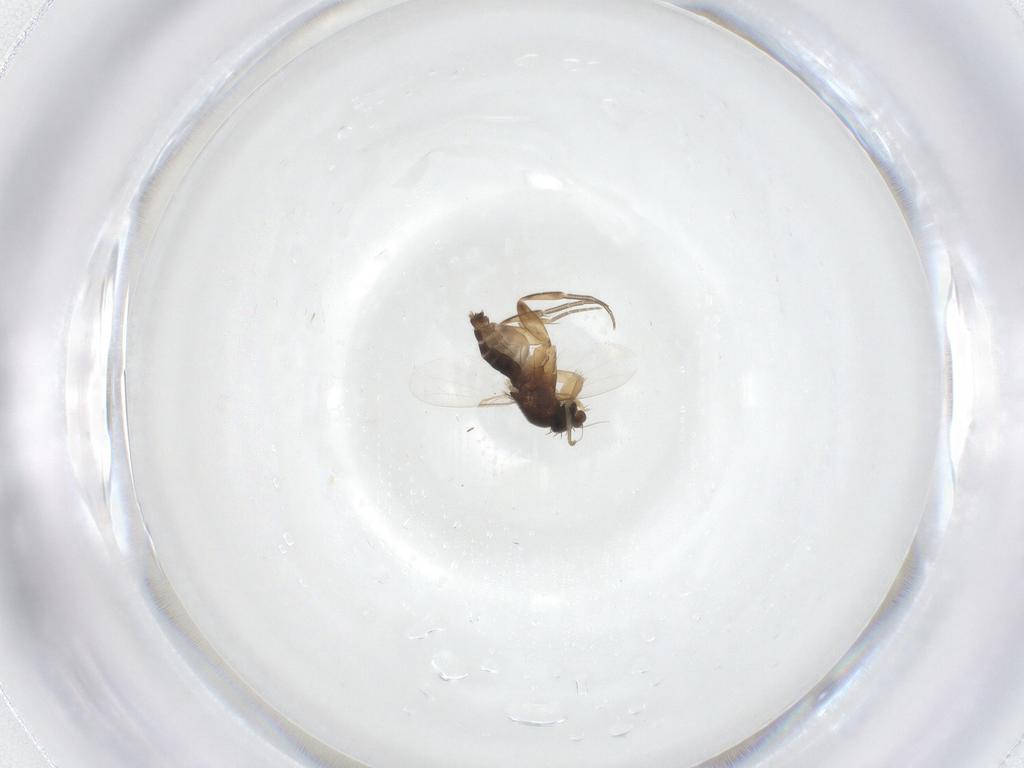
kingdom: Animalia
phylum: Arthropoda
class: Insecta
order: Diptera
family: Phoridae
